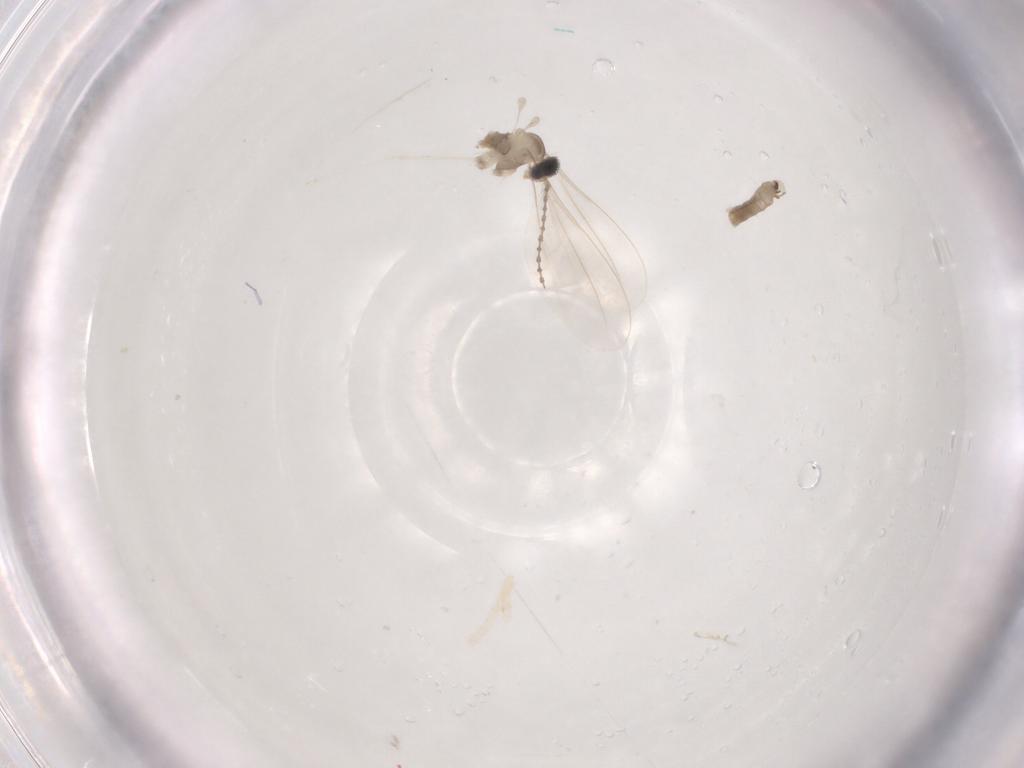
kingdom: Animalia
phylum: Arthropoda
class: Insecta
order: Diptera
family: Cecidomyiidae
